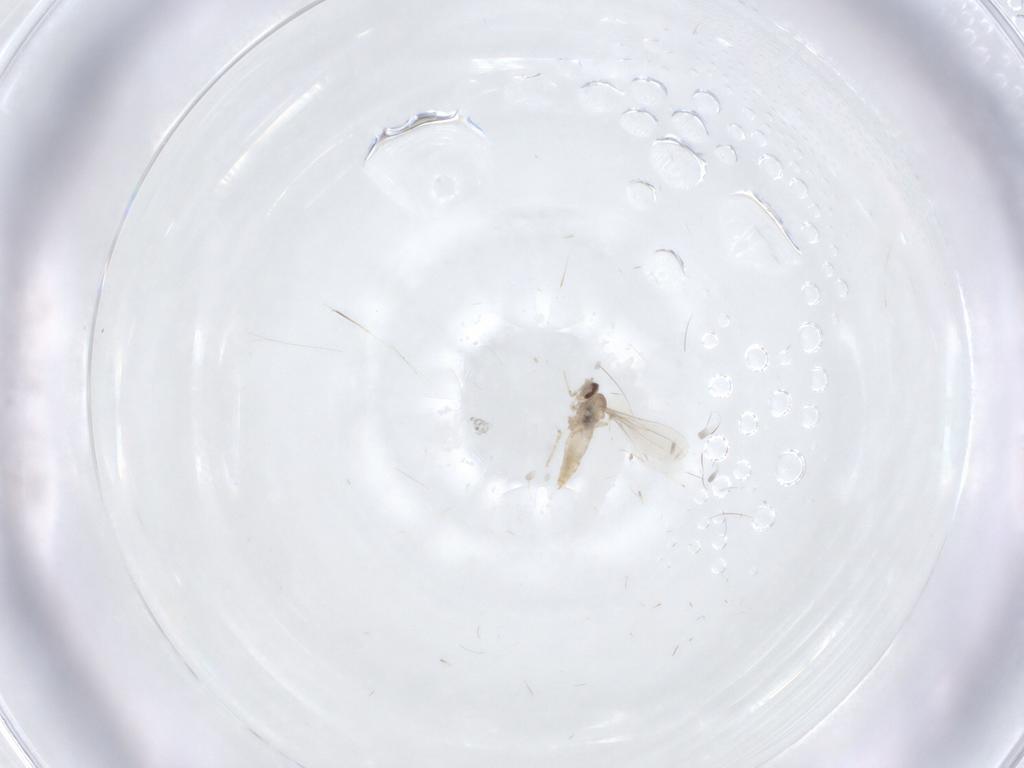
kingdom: Animalia
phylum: Arthropoda
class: Insecta
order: Diptera
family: Cecidomyiidae
